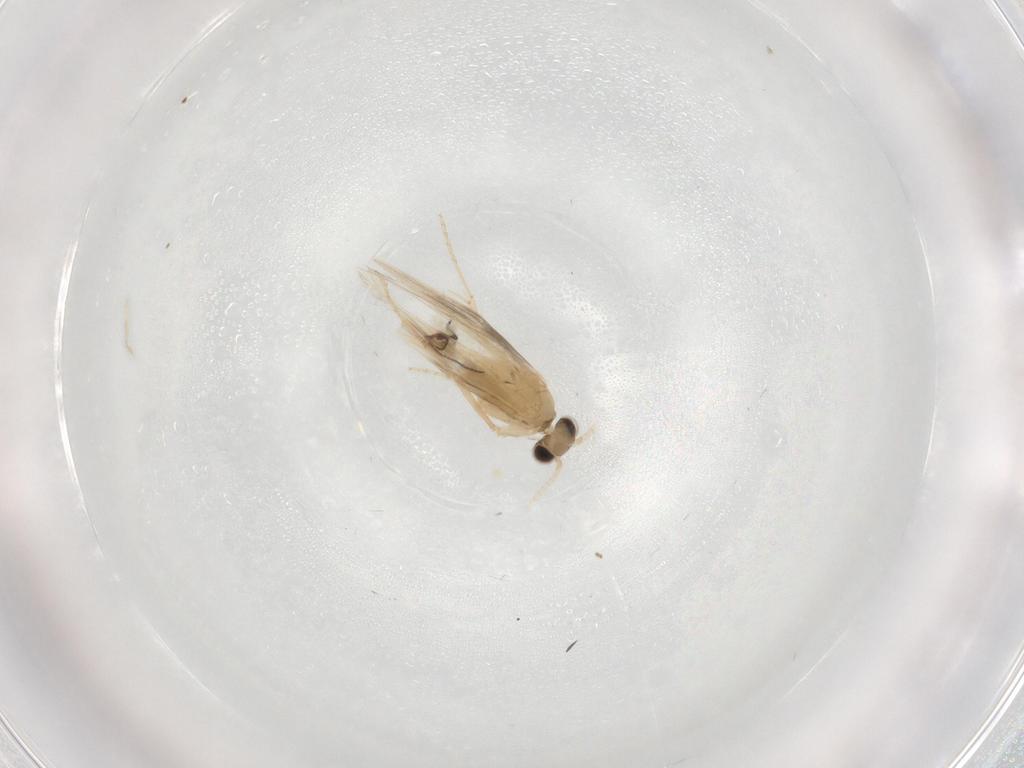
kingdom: Animalia
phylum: Arthropoda
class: Insecta
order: Trichoptera
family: Hydroptilidae
